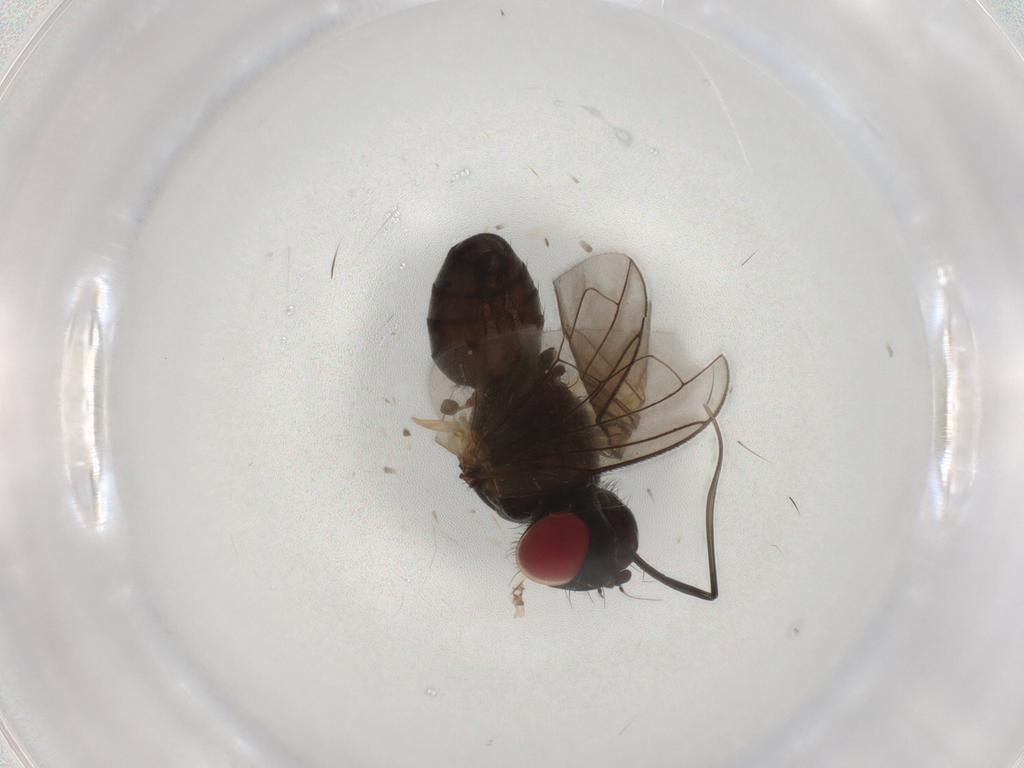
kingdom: Animalia
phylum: Arthropoda
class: Insecta
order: Diptera
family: Tachinidae
